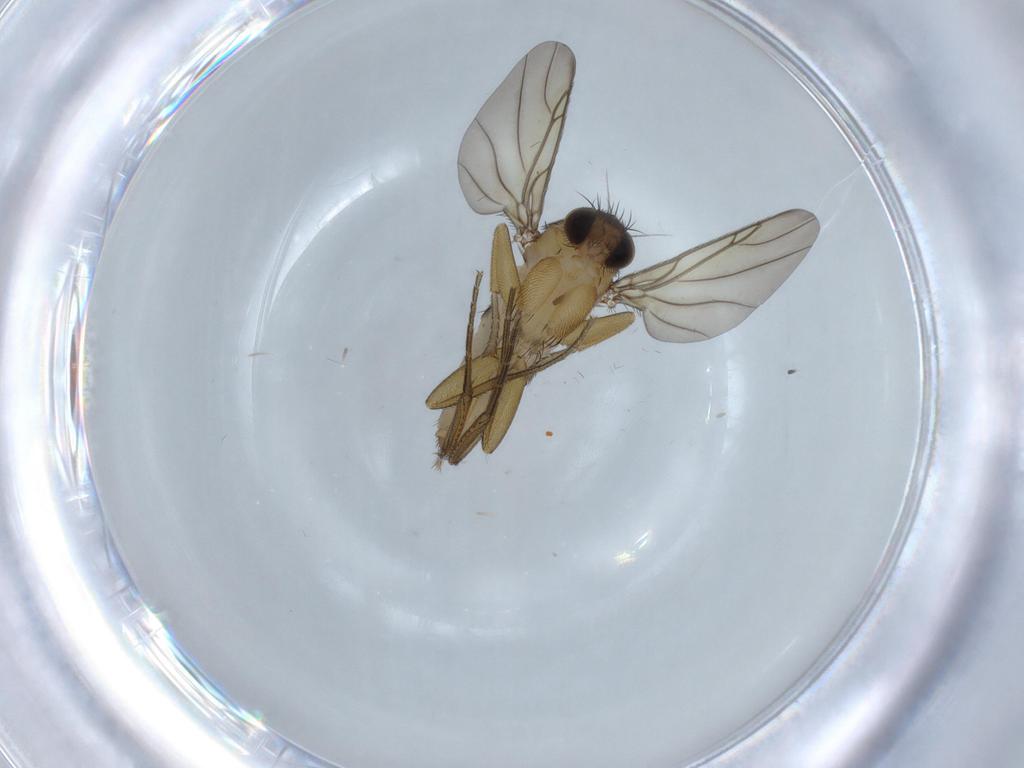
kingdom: Animalia
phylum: Arthropoda
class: Insecta
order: Diptera
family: Phoridae
